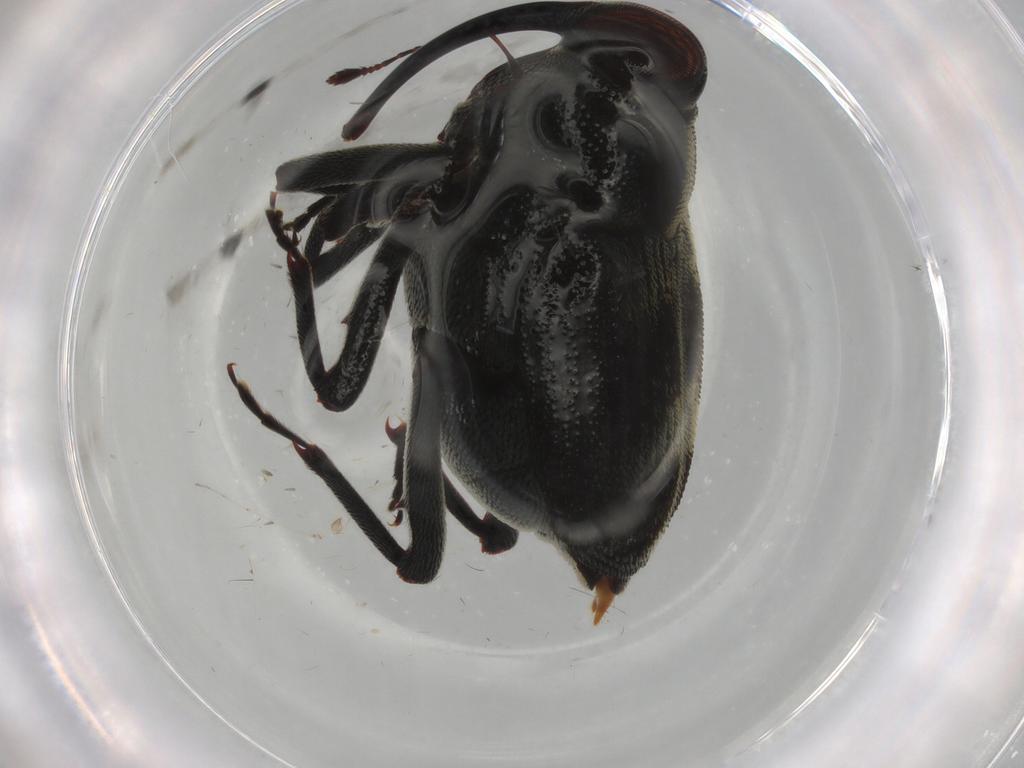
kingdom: Animalia
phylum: Arthropoda
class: Insecta
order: Coleoptera
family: Curculionidae
